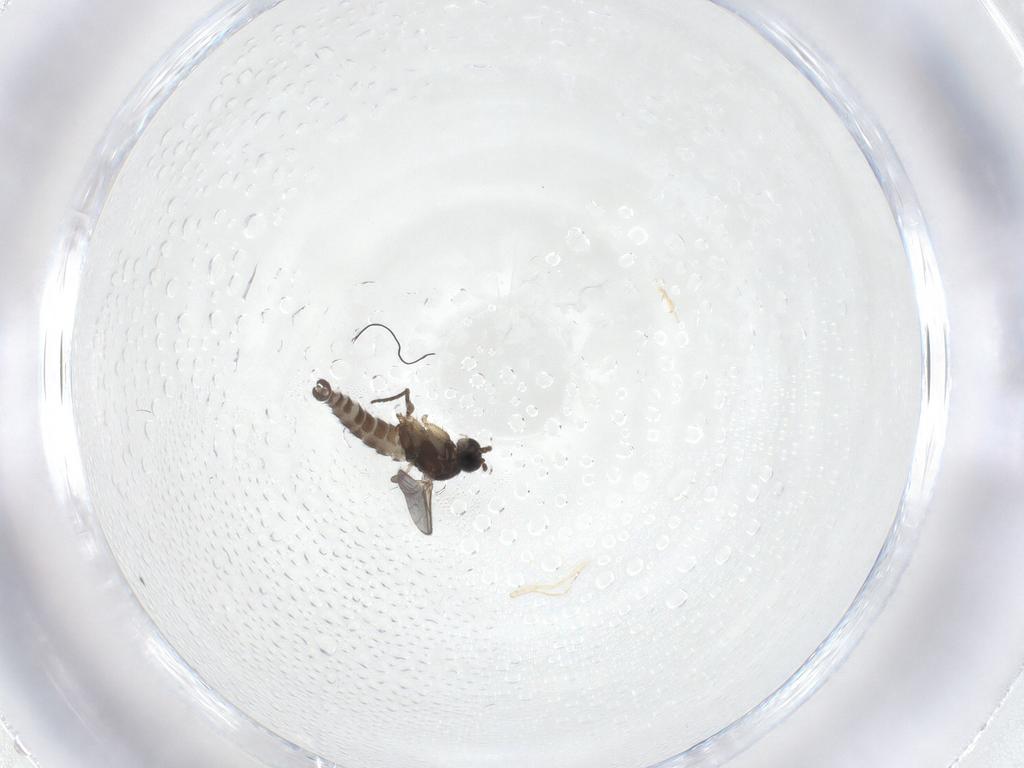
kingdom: Animalia
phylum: Arthropoda
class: Insecta
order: Diptera
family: Sciaridae
